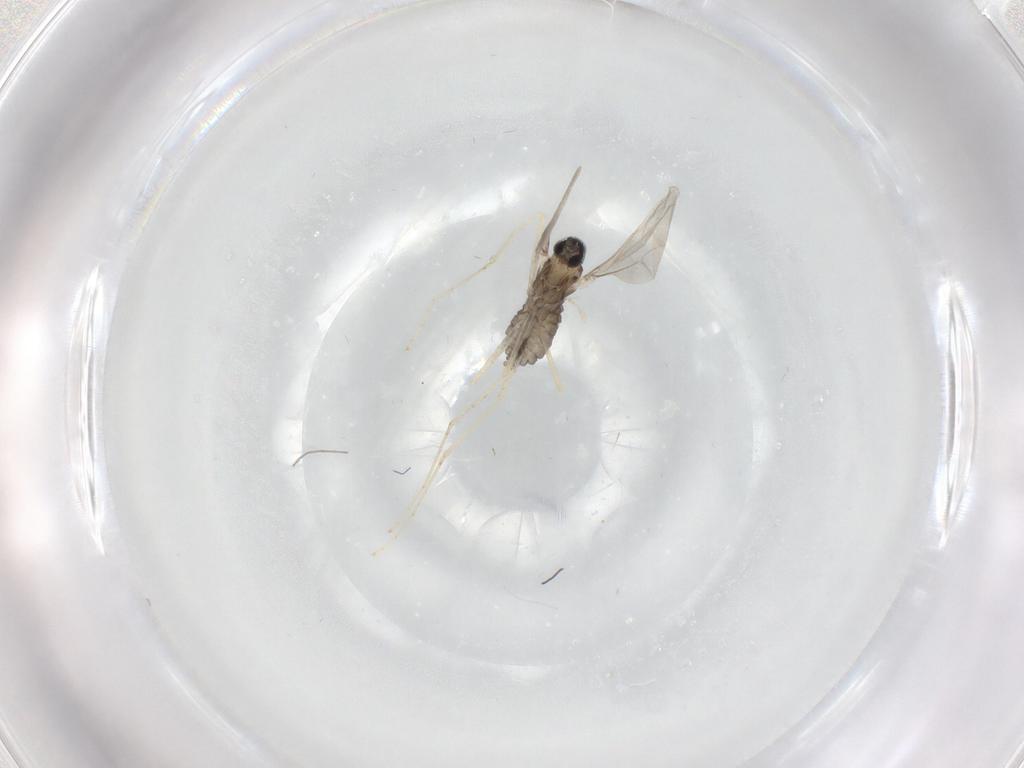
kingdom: Animalia
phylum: Arthropoda
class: Insecta
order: Diptera
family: Cecidomyiidae
